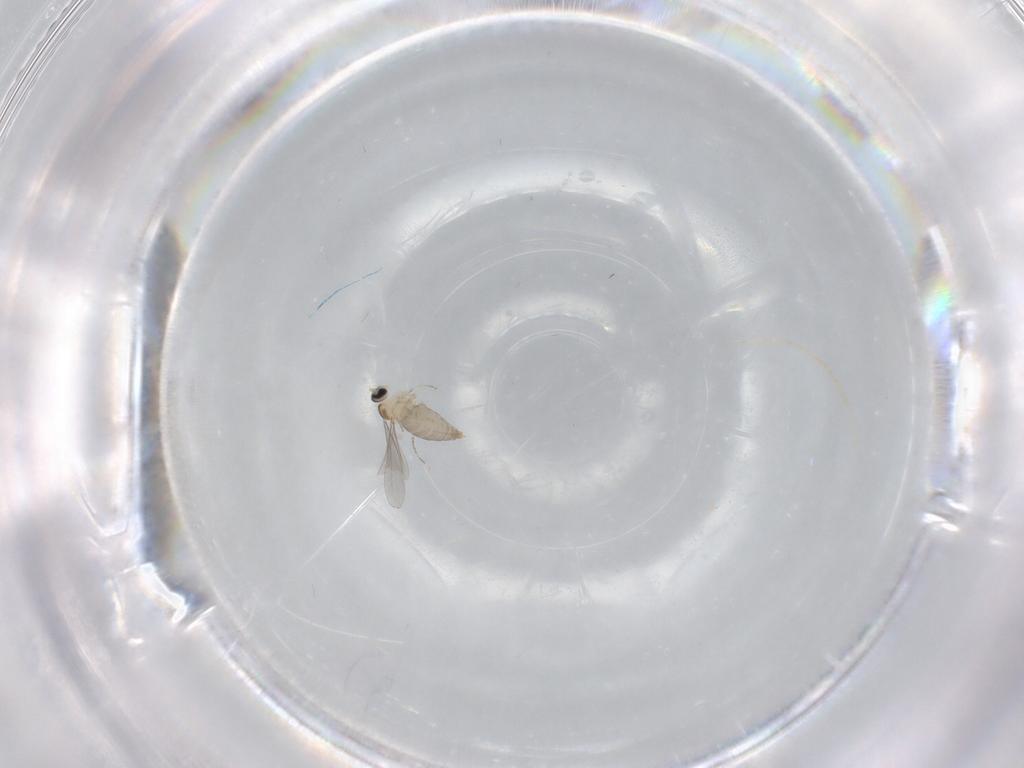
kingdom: Animalia
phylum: Arthropoda
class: Insecta
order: Diptera
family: Cecidomyiidae
